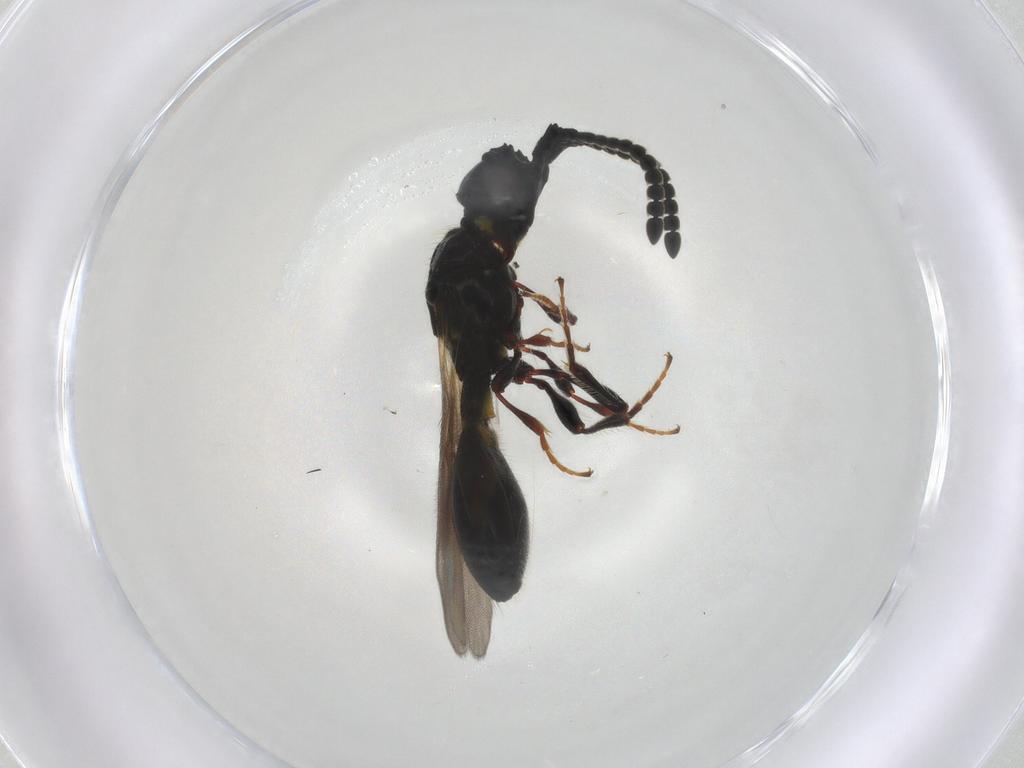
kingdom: Animalia
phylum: Arthropoda
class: Insecta
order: Hymenoptera
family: Diapriidae
